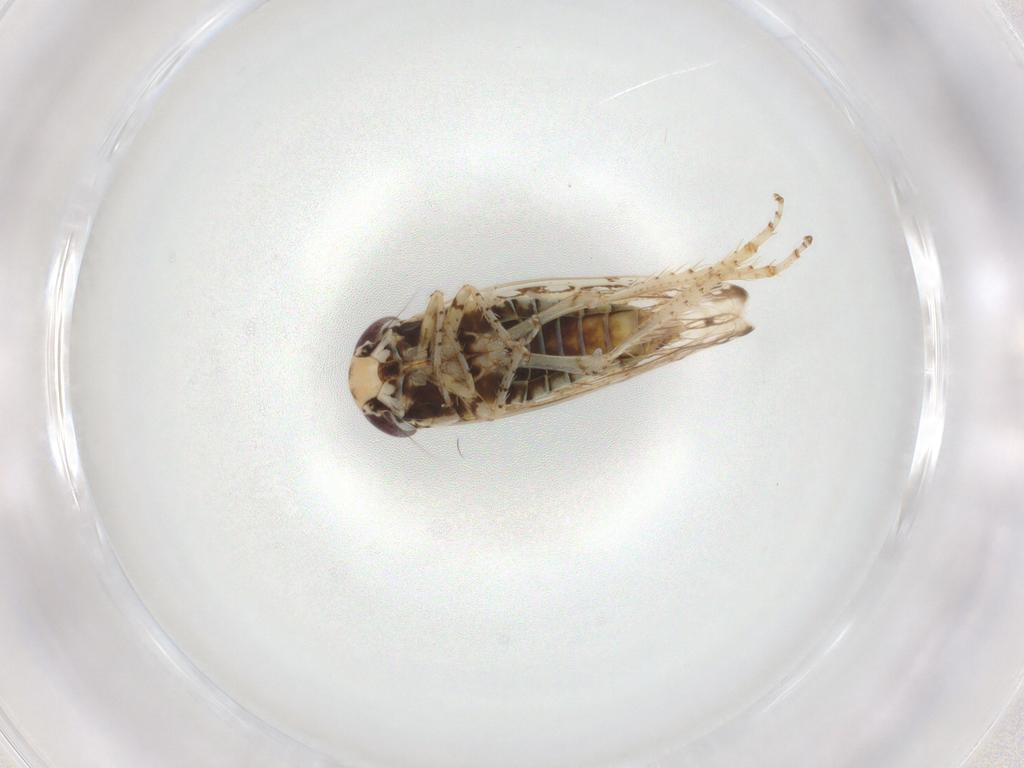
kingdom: Animalia
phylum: Arthropoda
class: Insecta
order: Hemiptera
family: Cicadellidae
